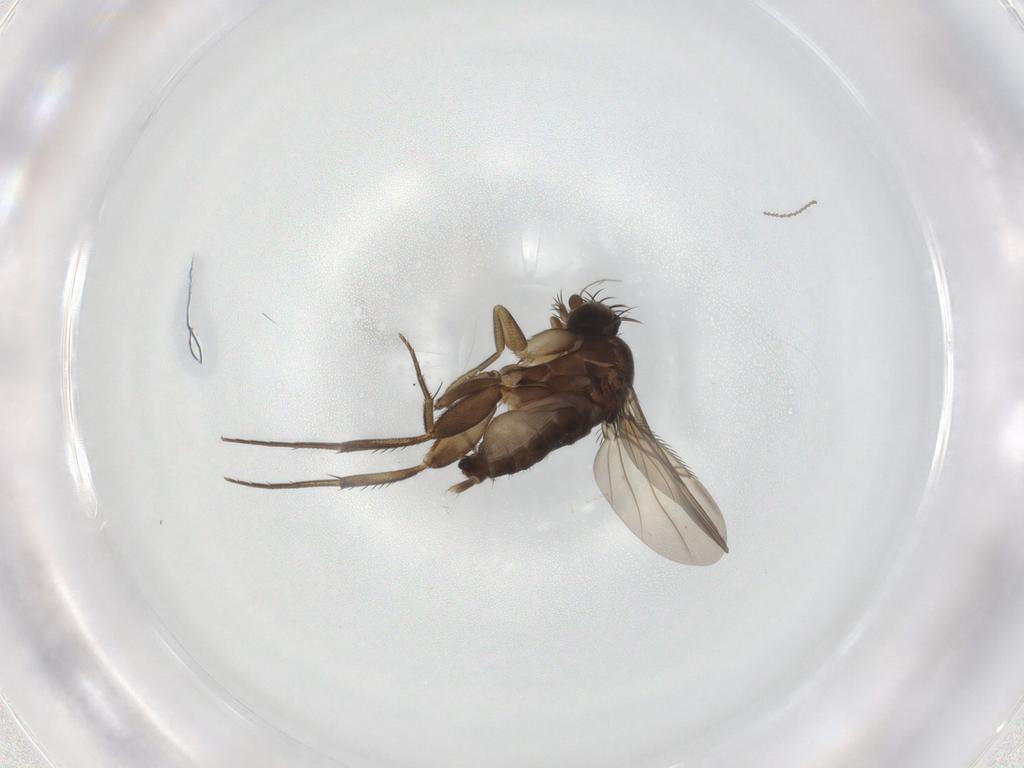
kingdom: Animalia
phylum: Arthropoda
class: Insecta
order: Diptera
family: Phoridae
